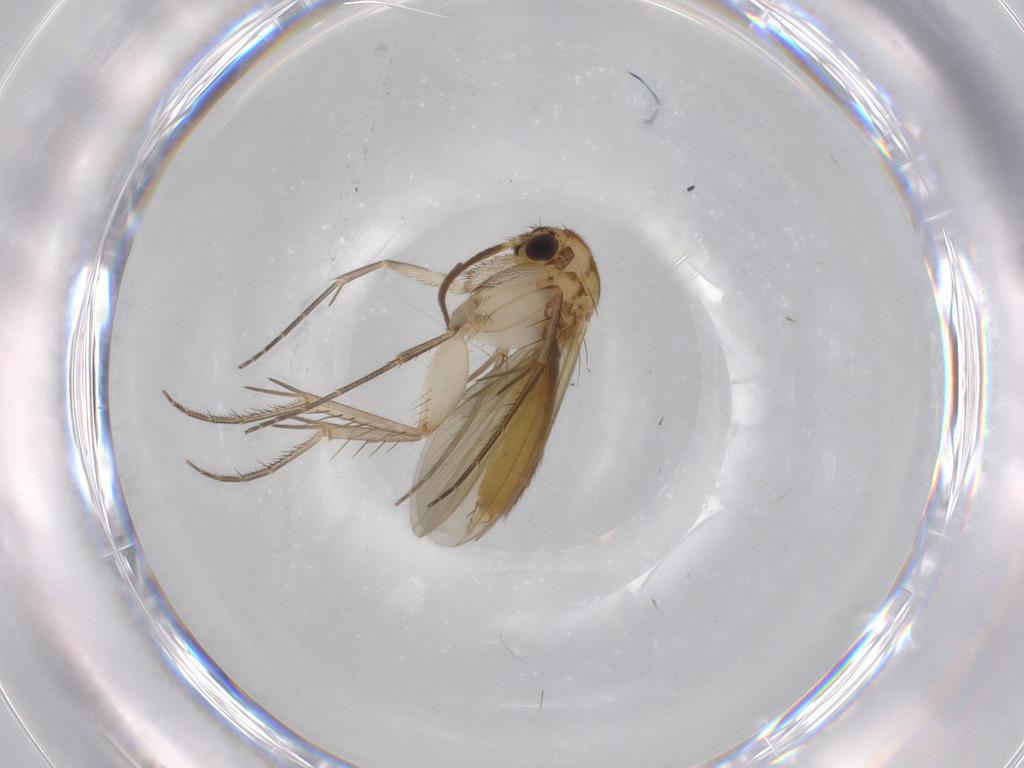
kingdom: Animalia
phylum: Arthropoda
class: Insecta
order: Diptera
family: Mycetophilidae
